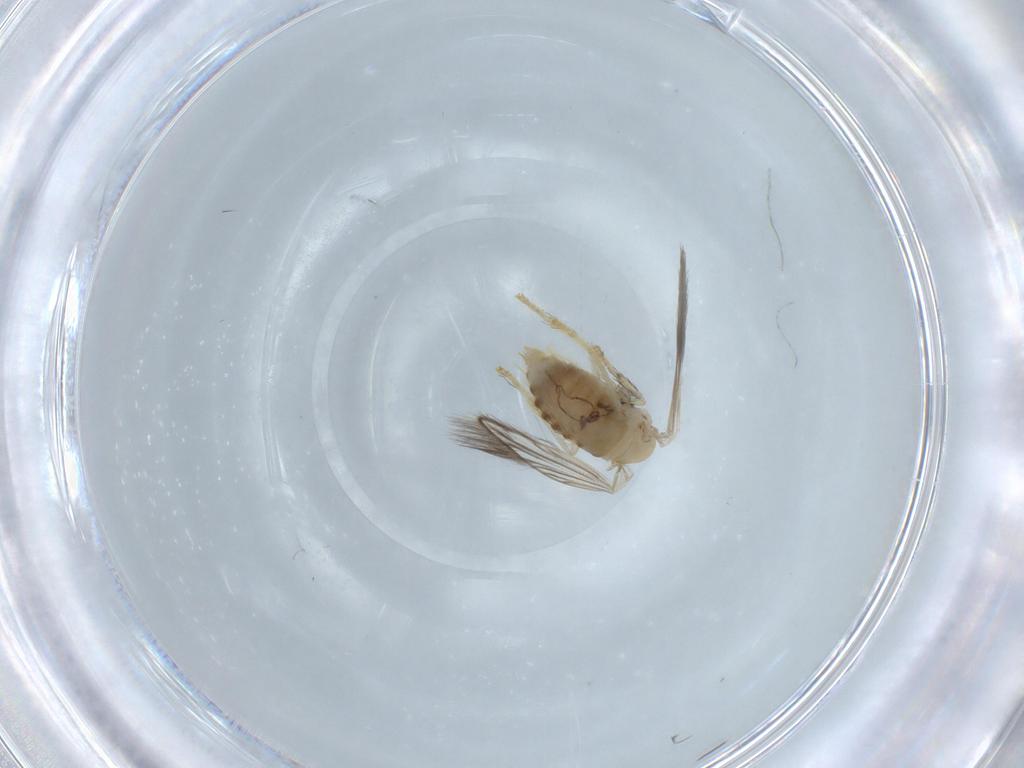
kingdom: Animalia
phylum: Arthropoda
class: Insecta
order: Diptera
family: Psychodidae
